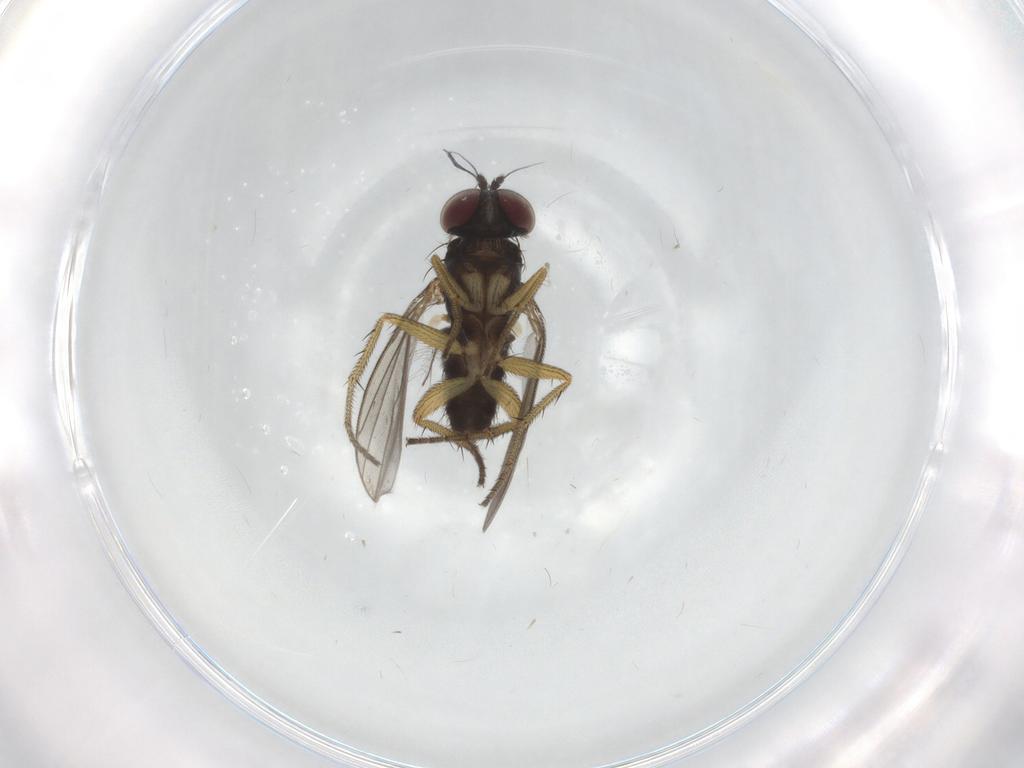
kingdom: Animalia
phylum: Arthropoda
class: Insecta
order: Diptera
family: Chironomidae
